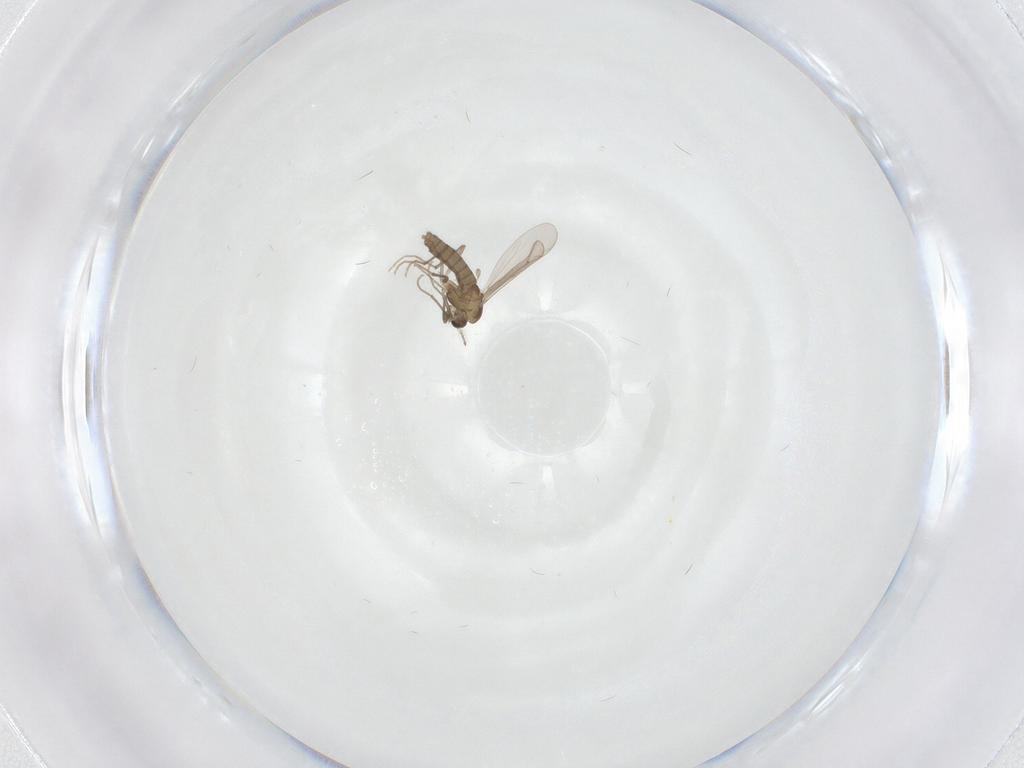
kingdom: Animalia
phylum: Arthropoda
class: Insecta
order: Diptera
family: Chironomidae
